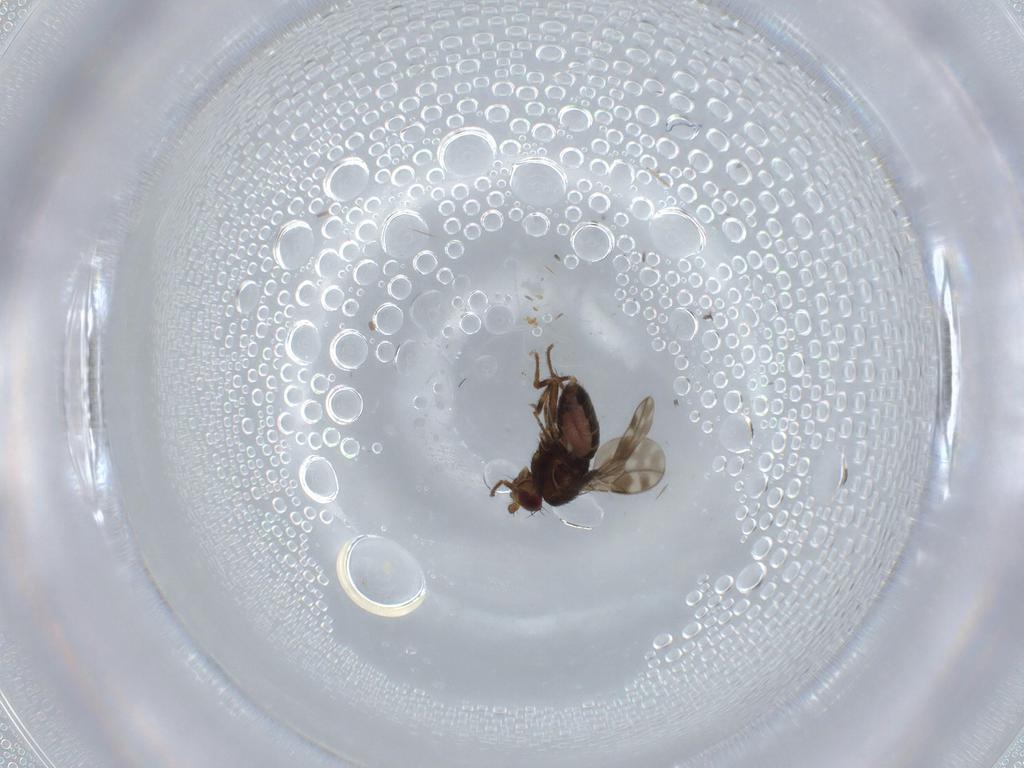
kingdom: Animalia
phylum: Arthropoda
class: Insecta
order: Diptera
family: Sphaeroceridae
